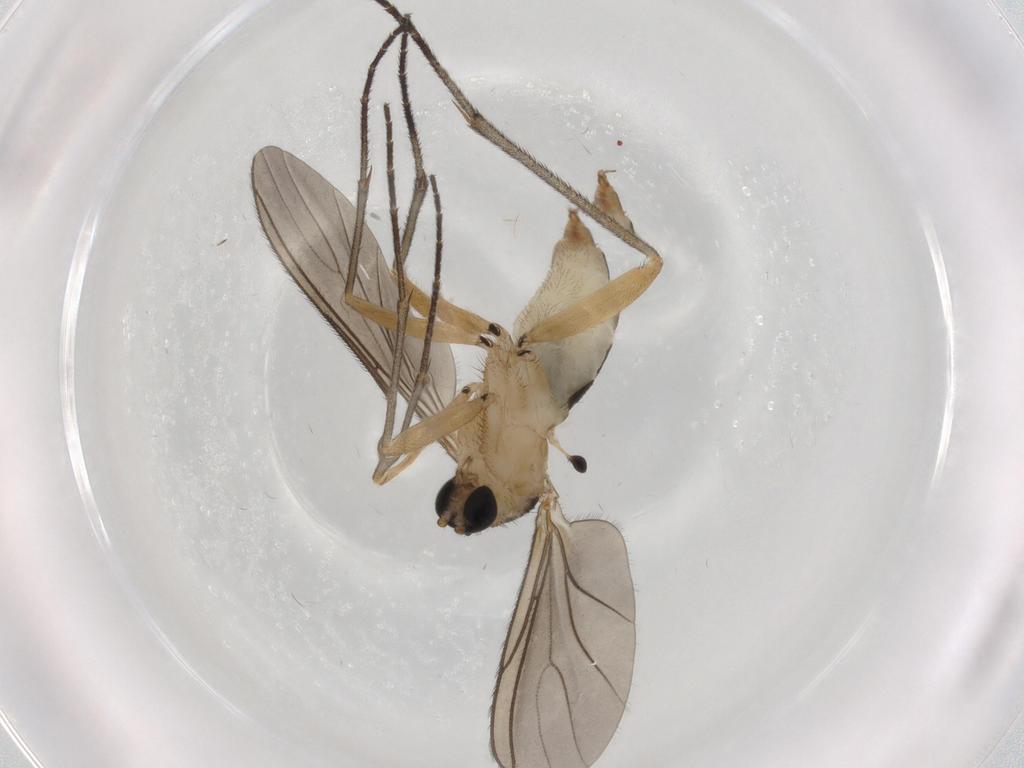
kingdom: Animalia
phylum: Arthropoda
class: Insecta
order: Diptera
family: Sciaridae
